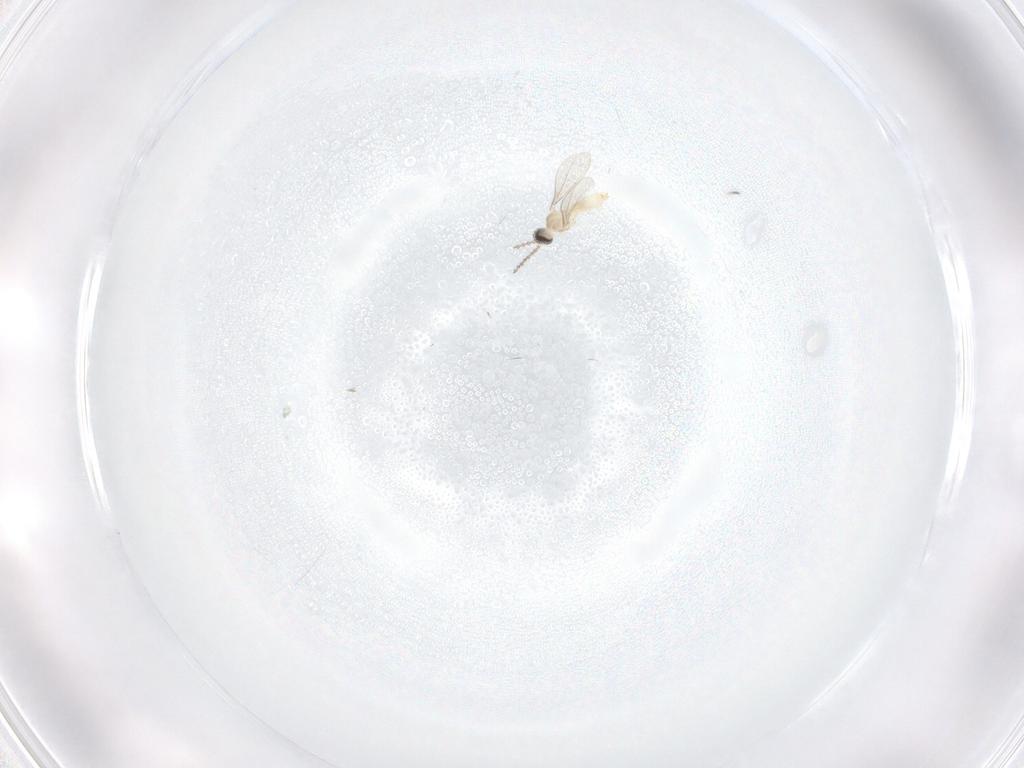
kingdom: Animalia
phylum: Arthropoda
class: Insecta
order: Diptera
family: Cecidomyiidae
